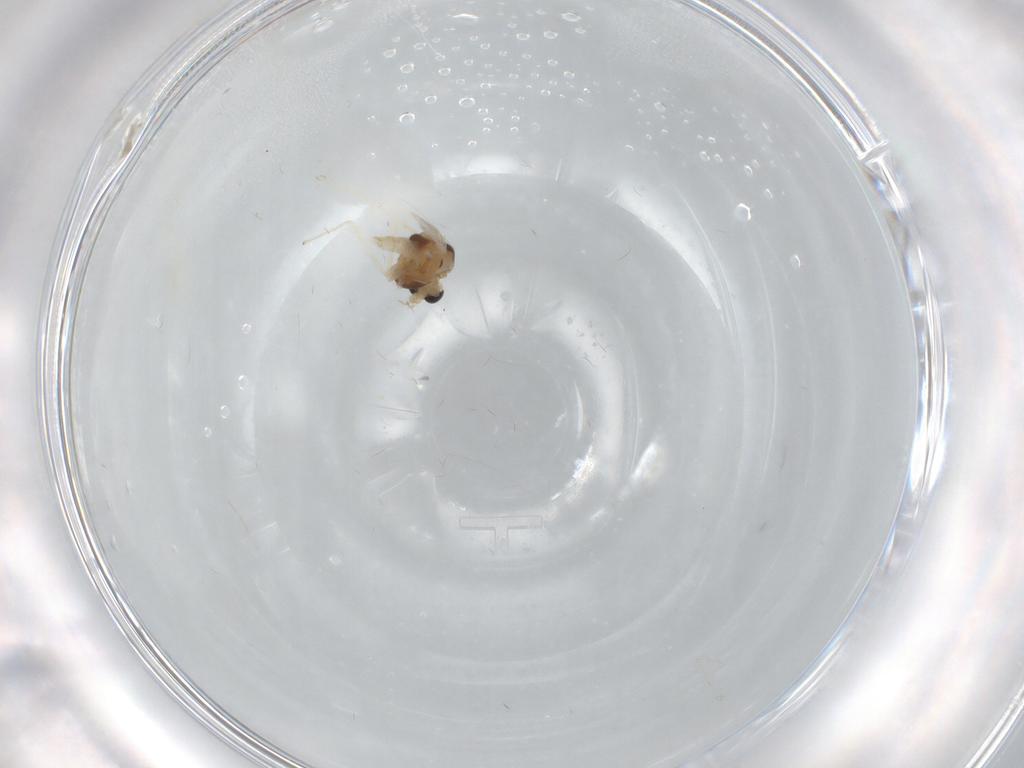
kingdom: Animalia
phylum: Arthropoda
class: Insecta
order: Diptera
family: Chironomidae
